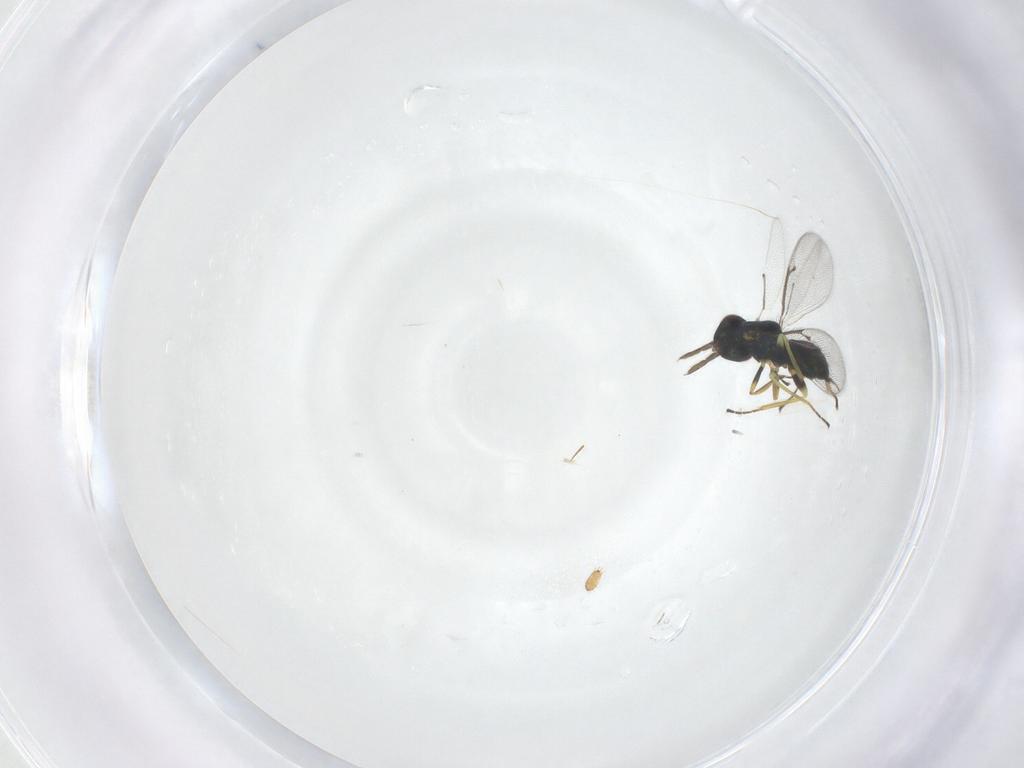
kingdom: Animalia
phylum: Arthropoda
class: Insecta
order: Hymenoptera
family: Eulophidae
